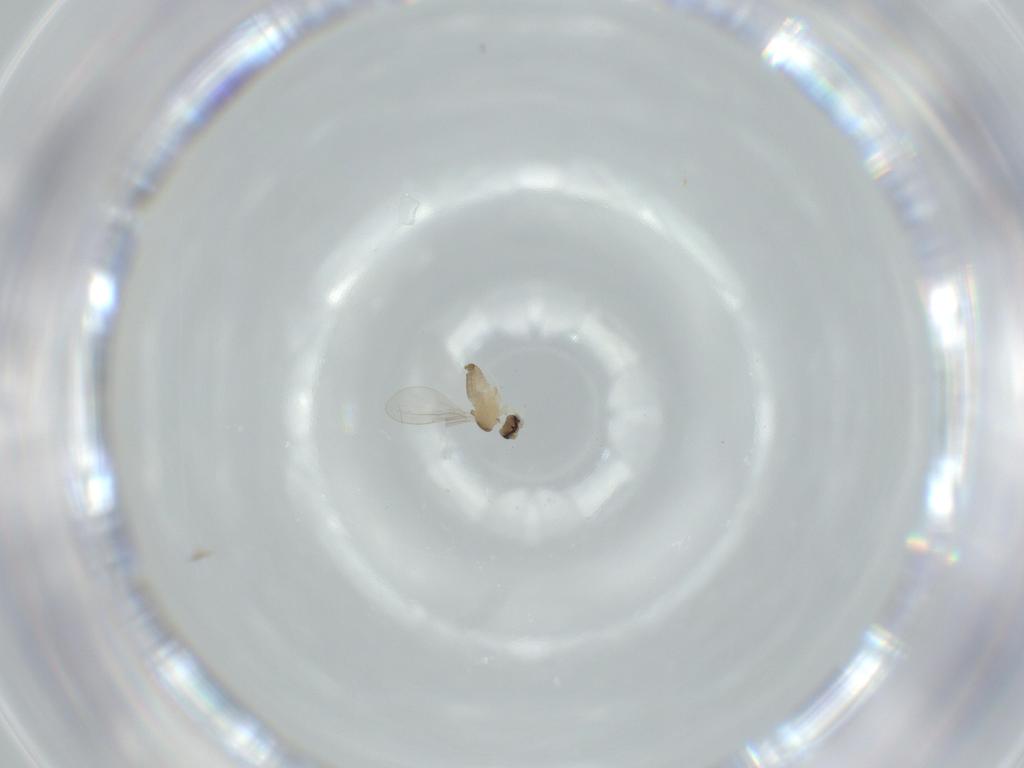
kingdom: Animalia
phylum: Arthropoda
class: Insecta
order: Diptera
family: Cecidomyiidae
